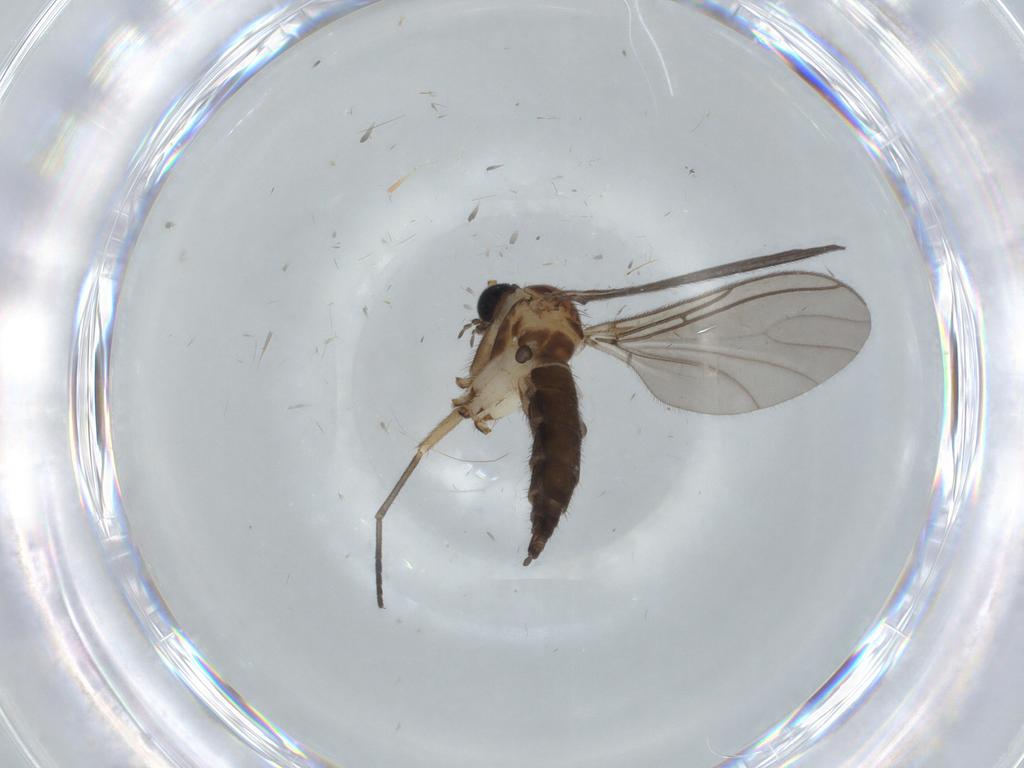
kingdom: Animalia
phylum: Arthropoda
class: Insecta
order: Diptera
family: Sciaridae
